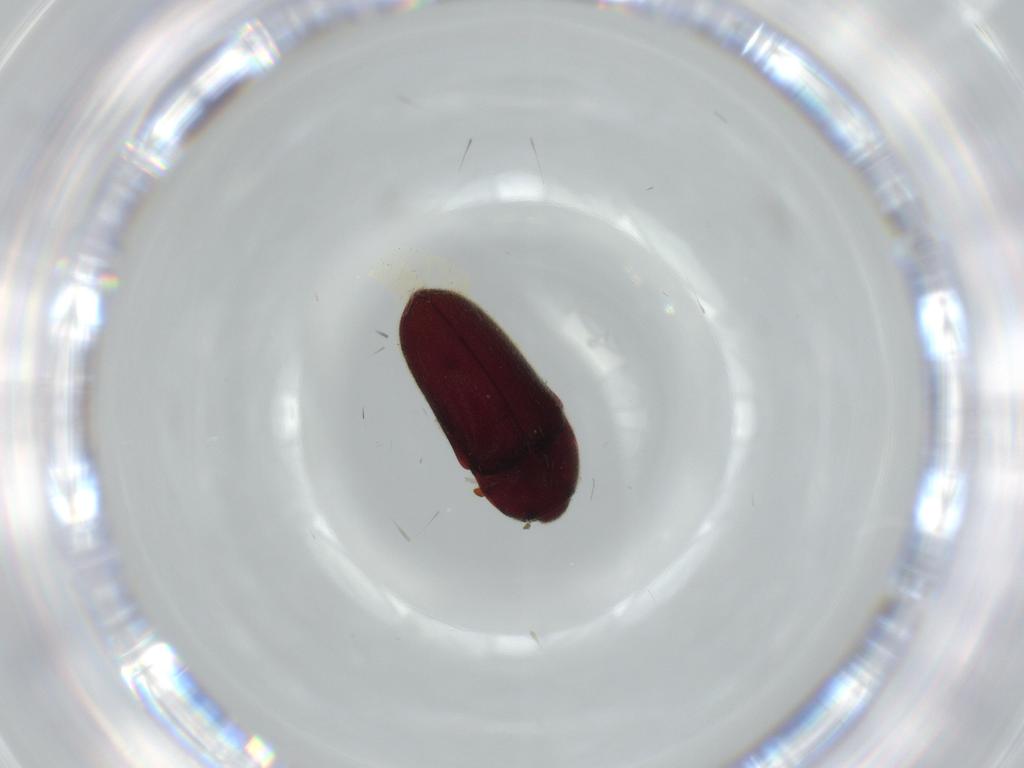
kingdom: Animalia
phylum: Arthropoda
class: Insecta
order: Coleoptera
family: Throscidae
